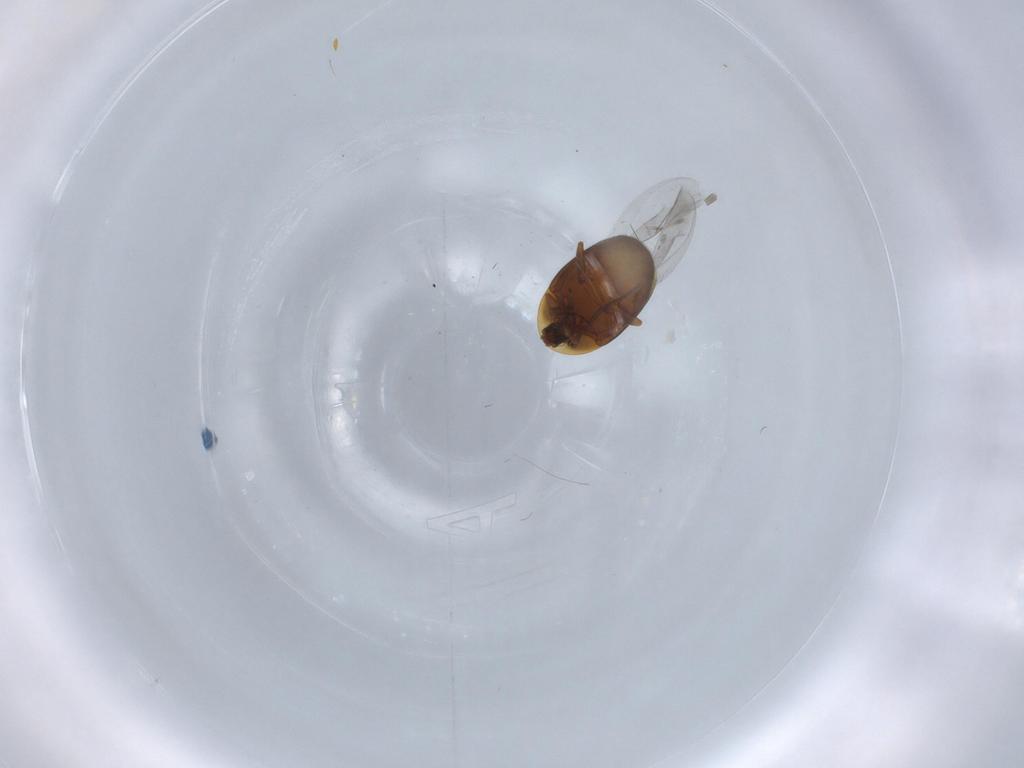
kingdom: Animalia
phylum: Arthropoda
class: Insecta
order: Coleoptera
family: Corylophidae
